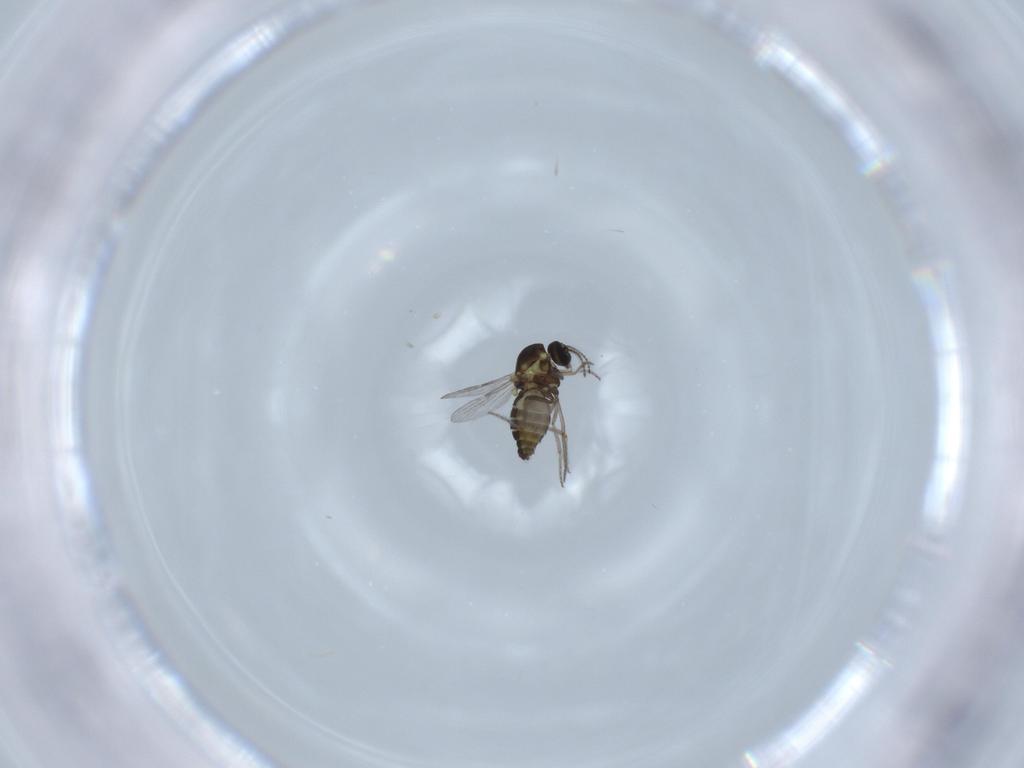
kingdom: Animalia
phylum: Arthropoda
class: Insecta
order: Diptera
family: Ceratopogonidae
